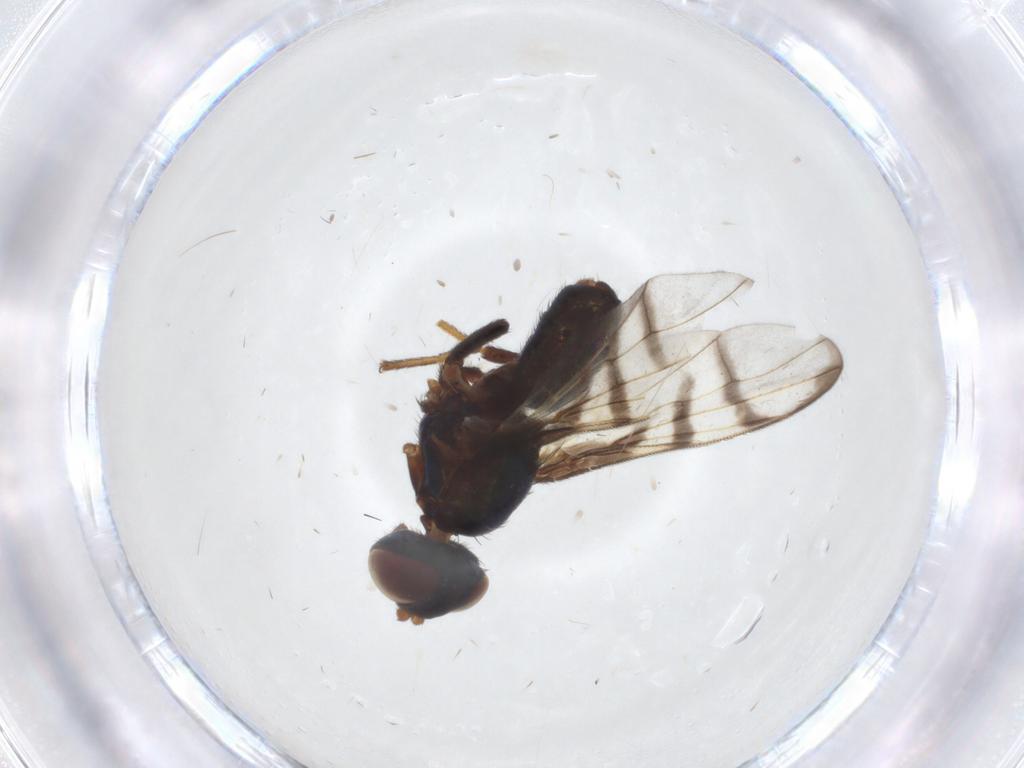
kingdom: Animalia
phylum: Arthropoda
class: Insecta
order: Diptera
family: Platystomatidae
